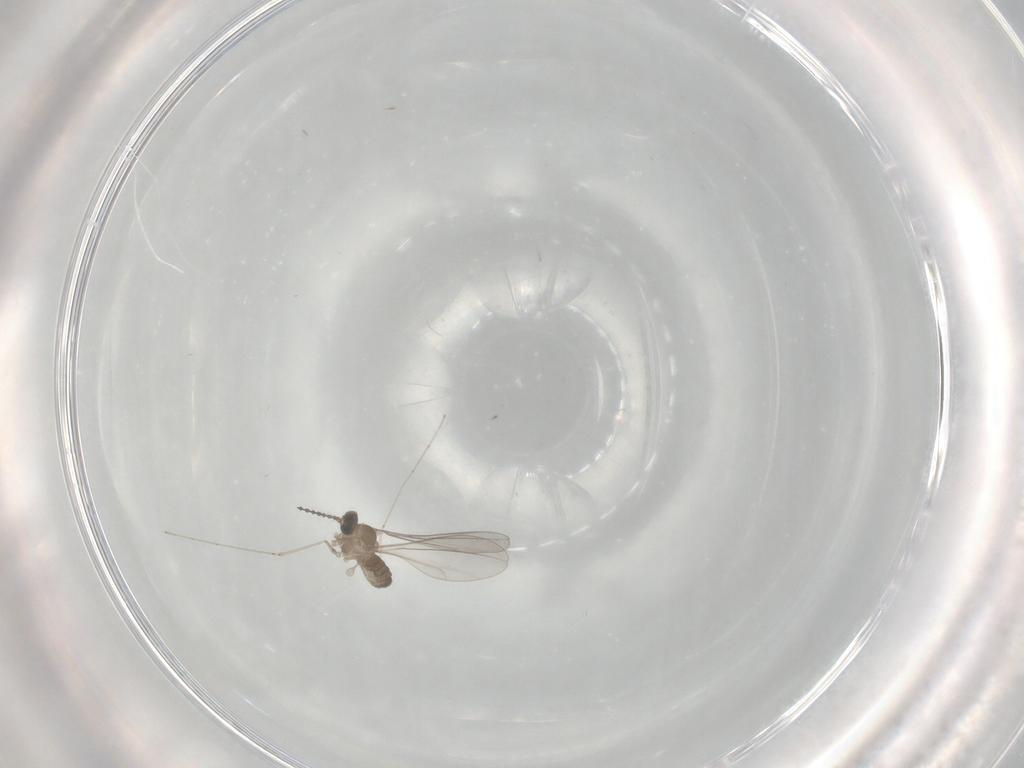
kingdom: Animalia
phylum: Arthropoda
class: Insecta
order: Diptera
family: Cecidomyiidae
